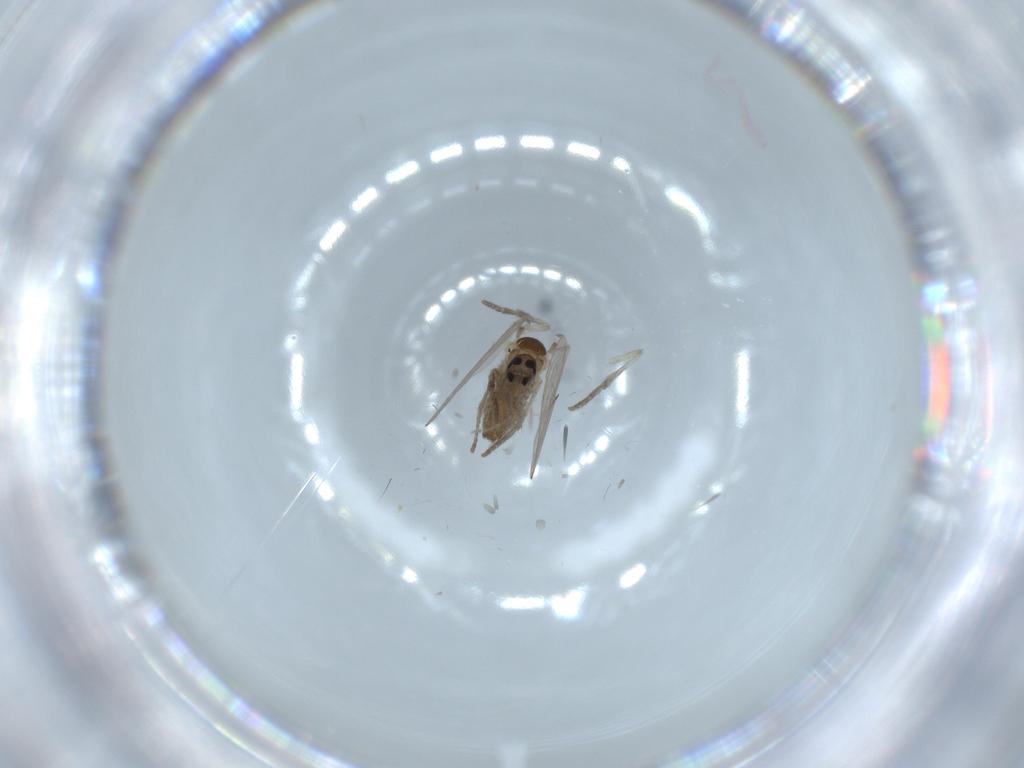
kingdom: Animalia
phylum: Arthropoda
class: Insecta
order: Diptera
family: Psychodidae
